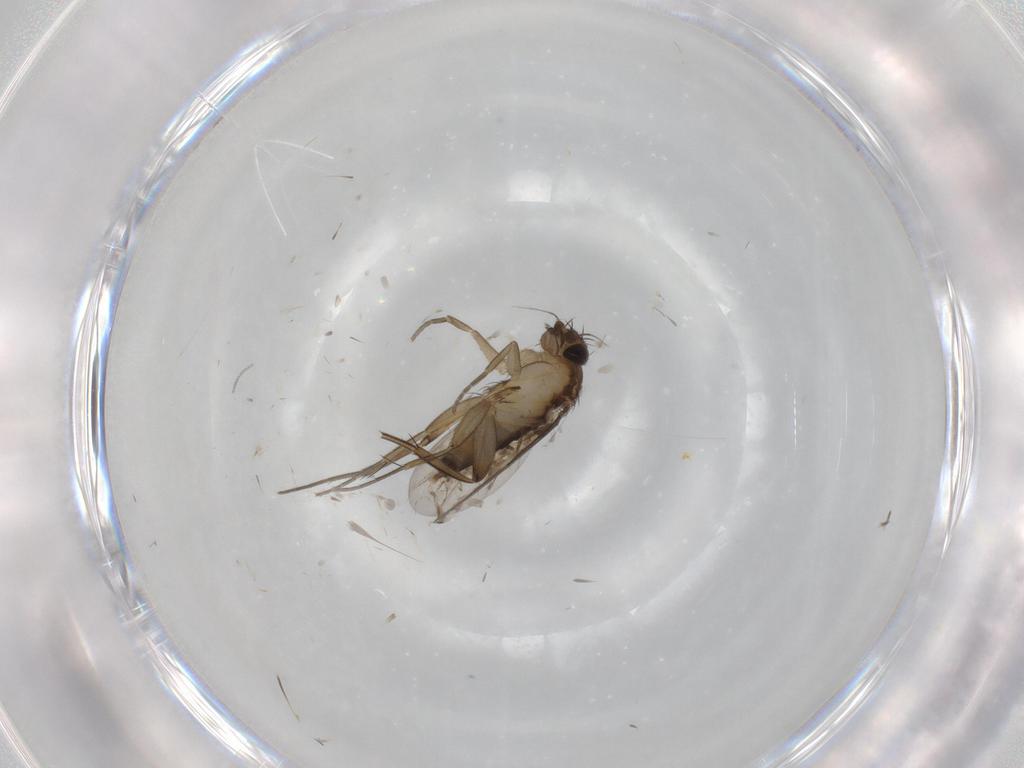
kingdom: Animalia
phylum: Arthropoda
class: Insecta
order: Diptera
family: Phoridae
